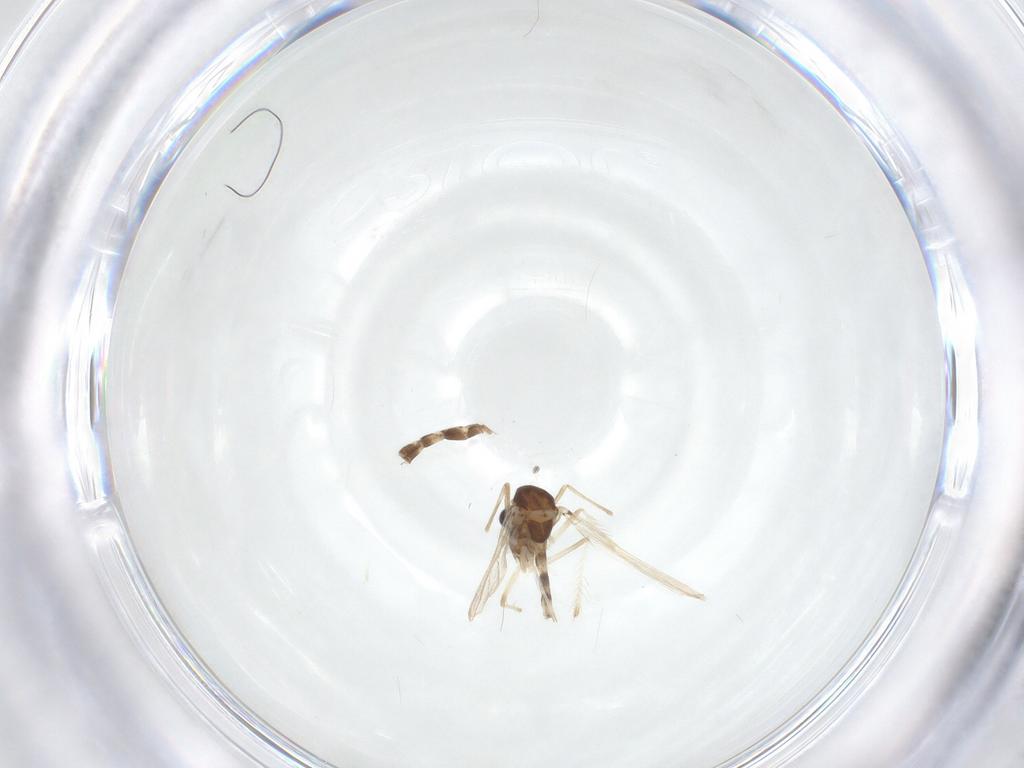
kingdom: Animalia
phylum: Arthropoda
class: Insecta
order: Diptera
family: Chironomidae
